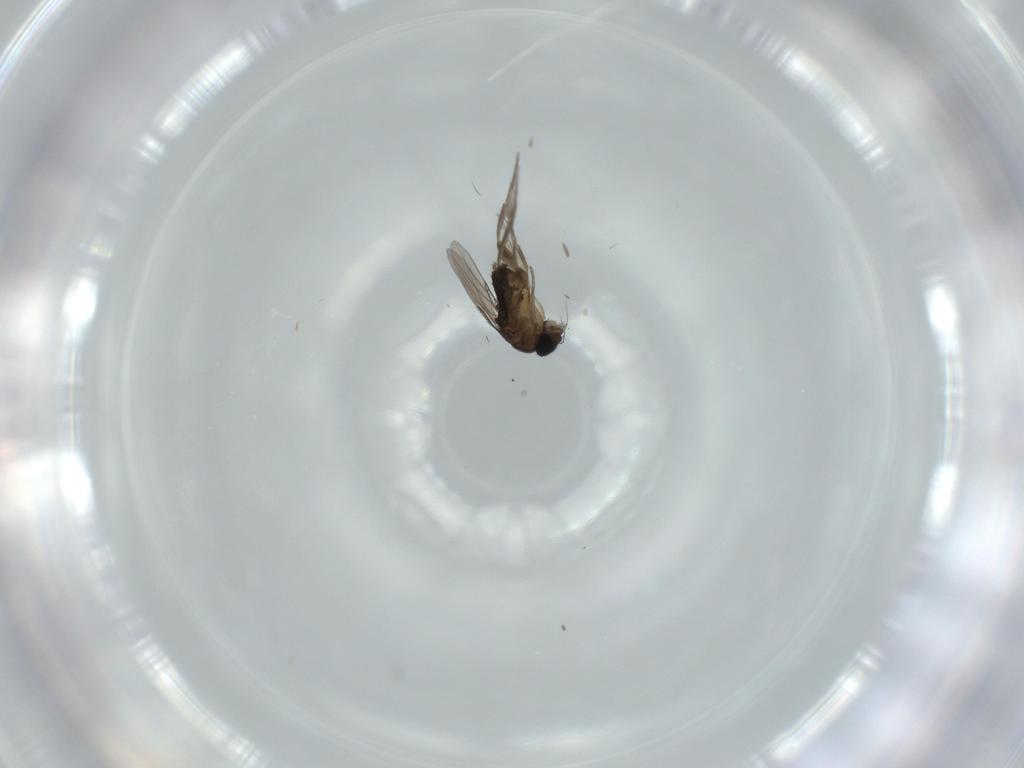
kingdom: Animalia
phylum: Arthropoda
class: Insecta
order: Diptera
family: Phoridae
